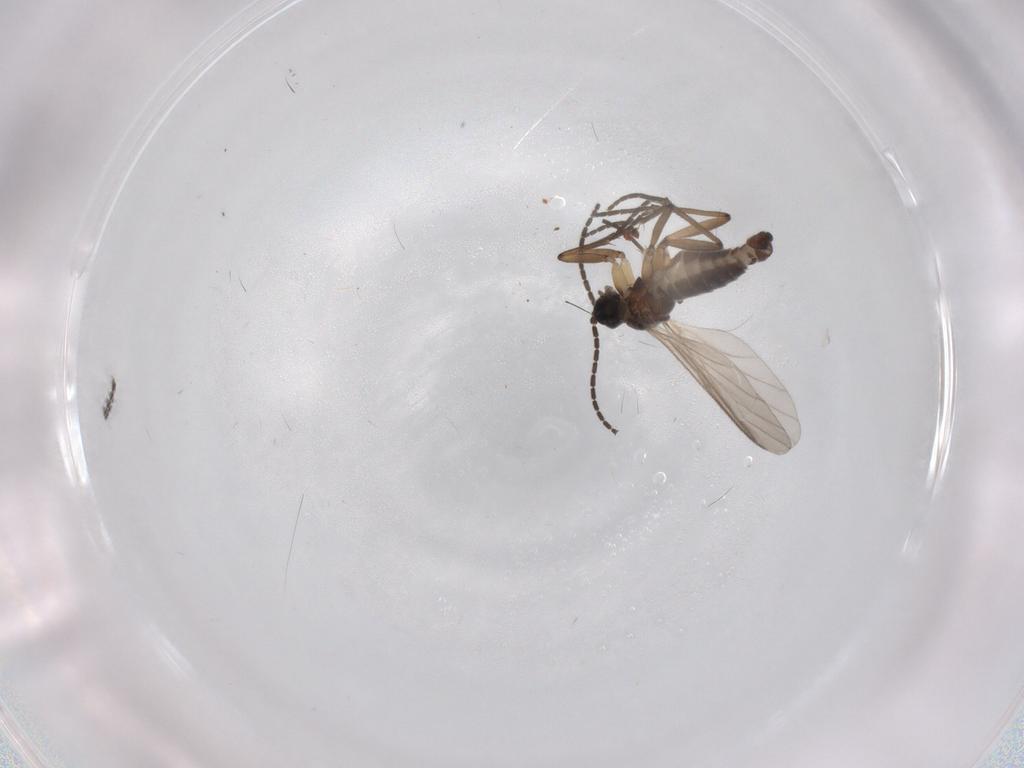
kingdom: Animalia
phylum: Arthropoda
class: Insecta
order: Diptera
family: Sciaridae
